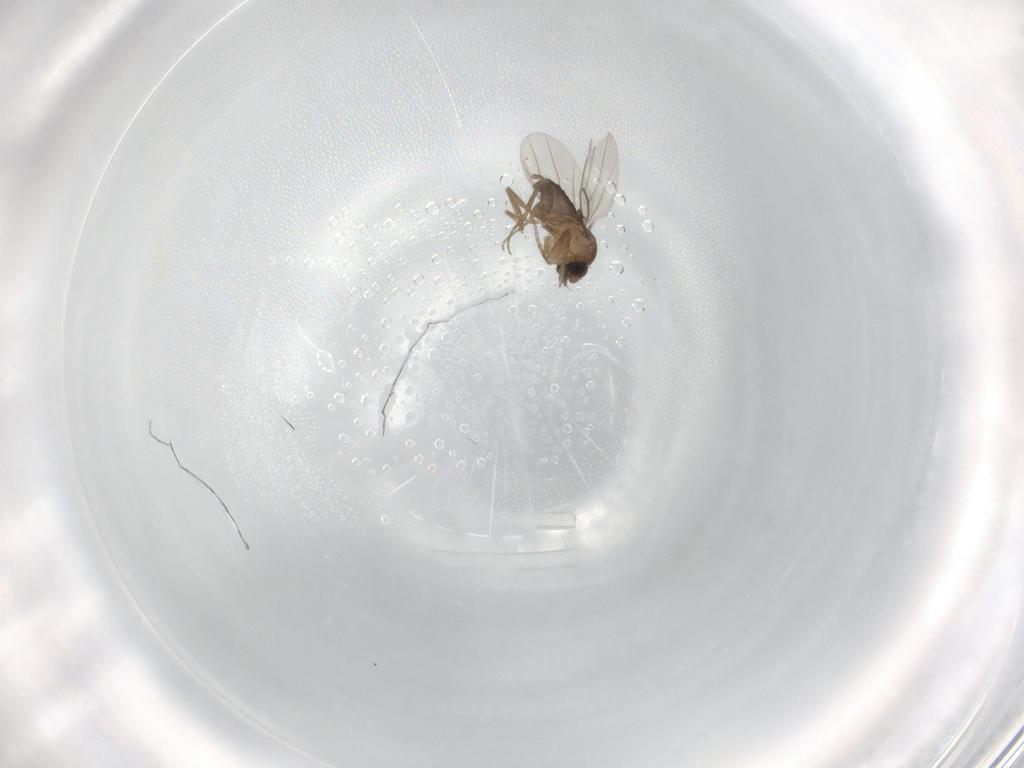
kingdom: Animalia
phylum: Arthropoda
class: Insecta
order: Diptera
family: Phoridae
